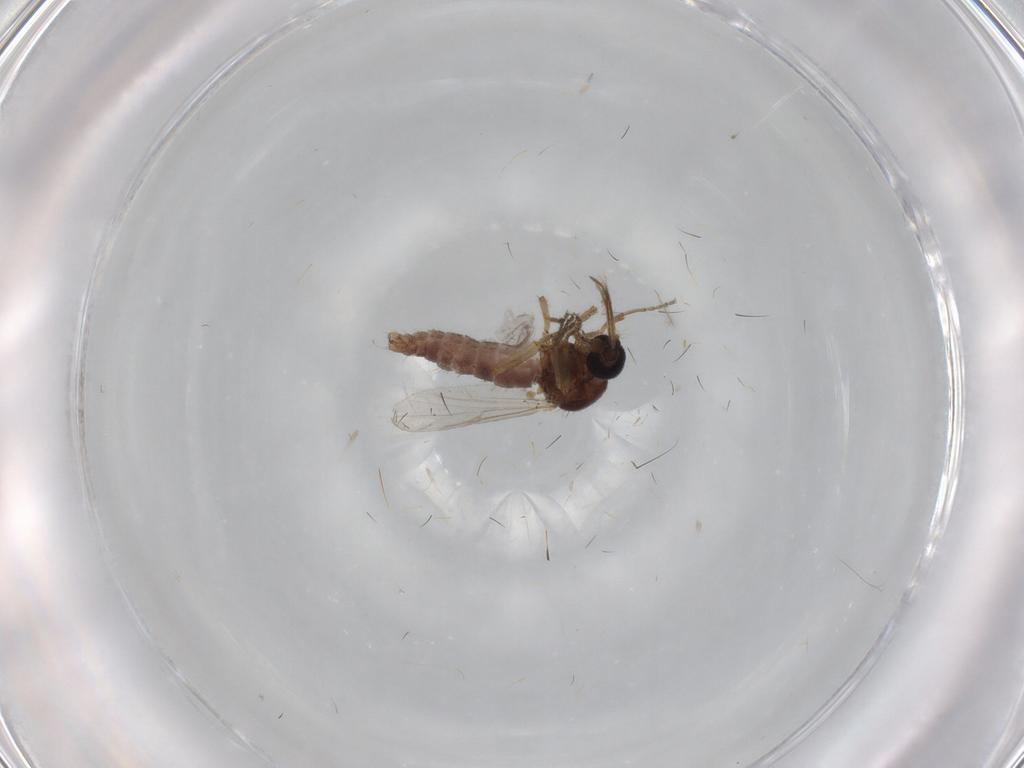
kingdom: Animalia
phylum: Arthropoda
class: Insecta
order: Diptera
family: Ceratopogonidae
